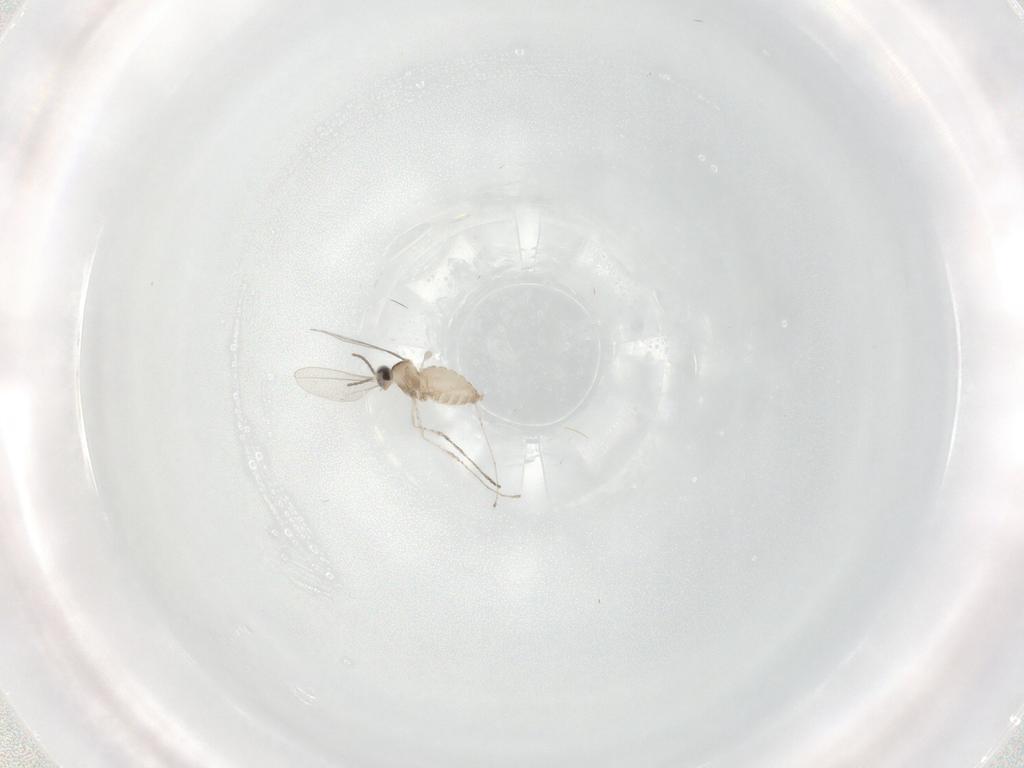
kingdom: Animalia
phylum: Arthropoda
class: Insecta
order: Diptera
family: Cecidomyiidae
